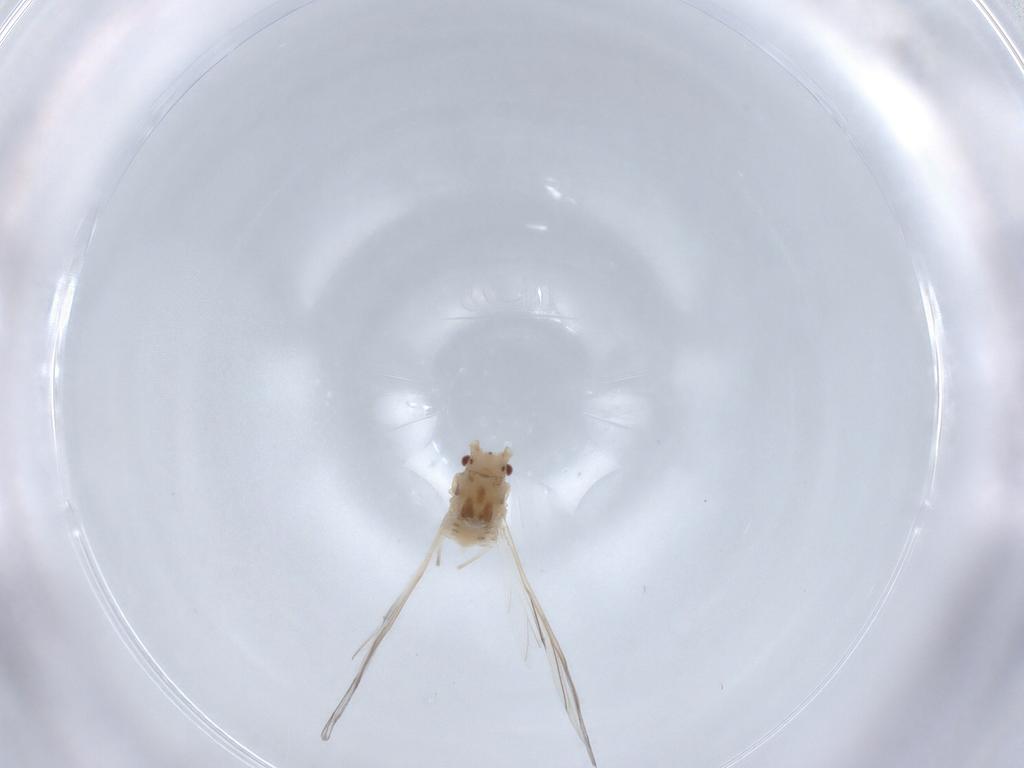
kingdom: Animalia
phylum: Arthropoda
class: Insecta
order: Hemiptera
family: Aphididae
